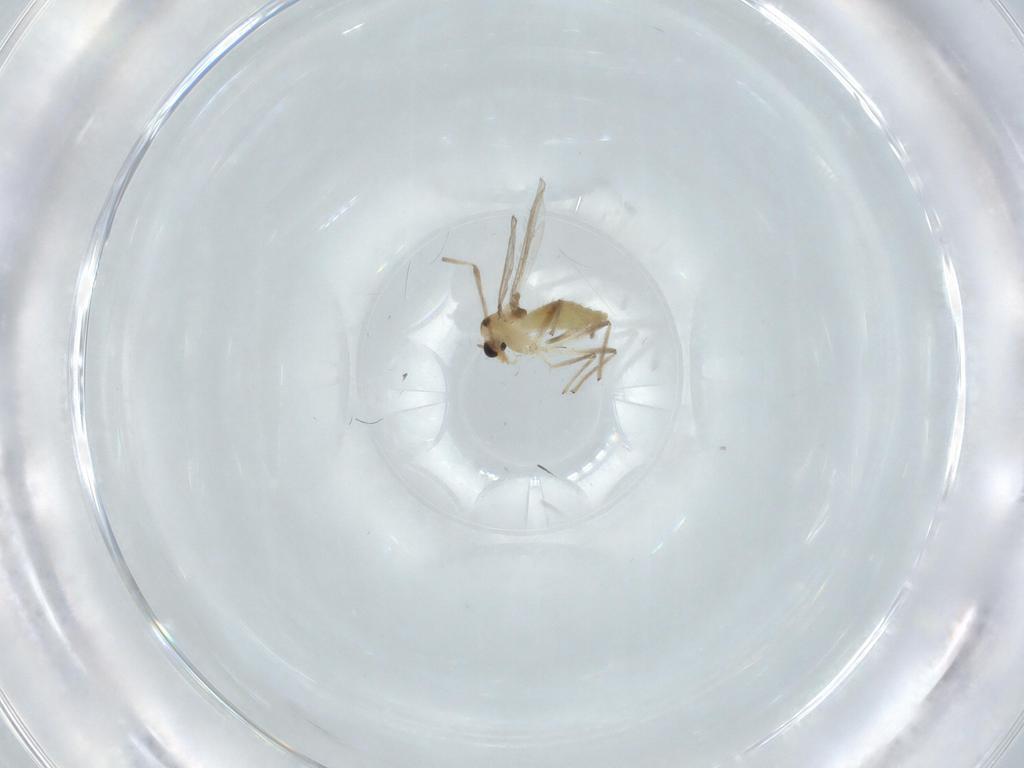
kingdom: Animalia
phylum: Arthropoda
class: Insecta
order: Diptera
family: Chironomidae
